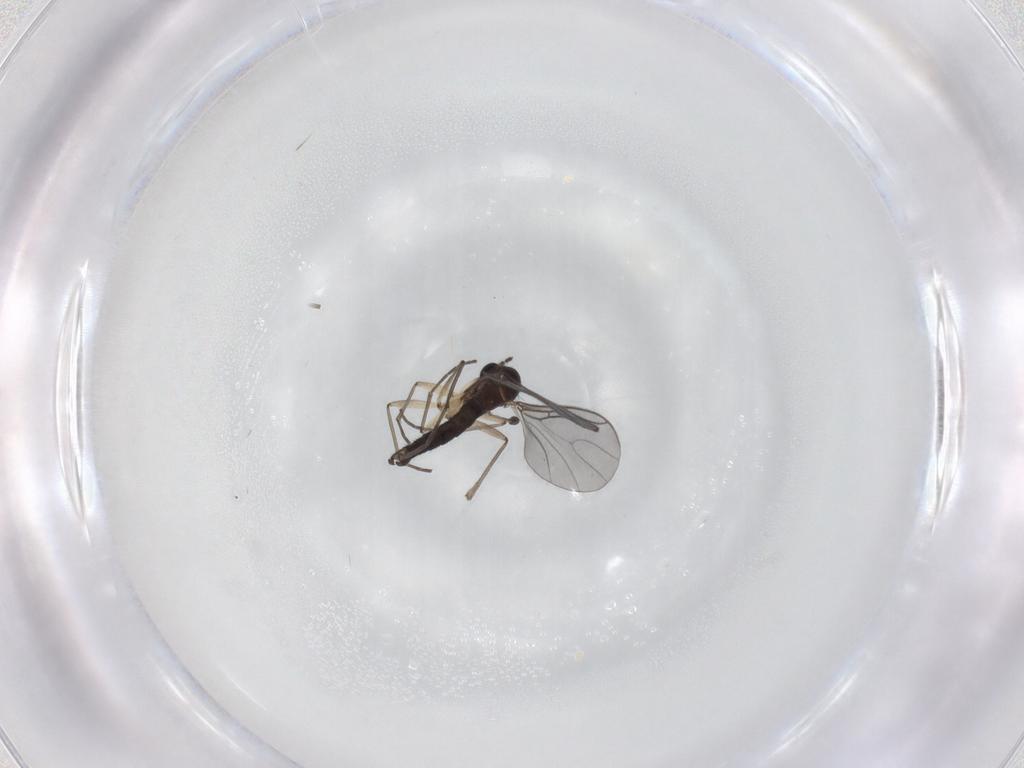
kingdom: Animalia
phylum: Arthropoda
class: Insecta
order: Diptera
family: Sciaridae
